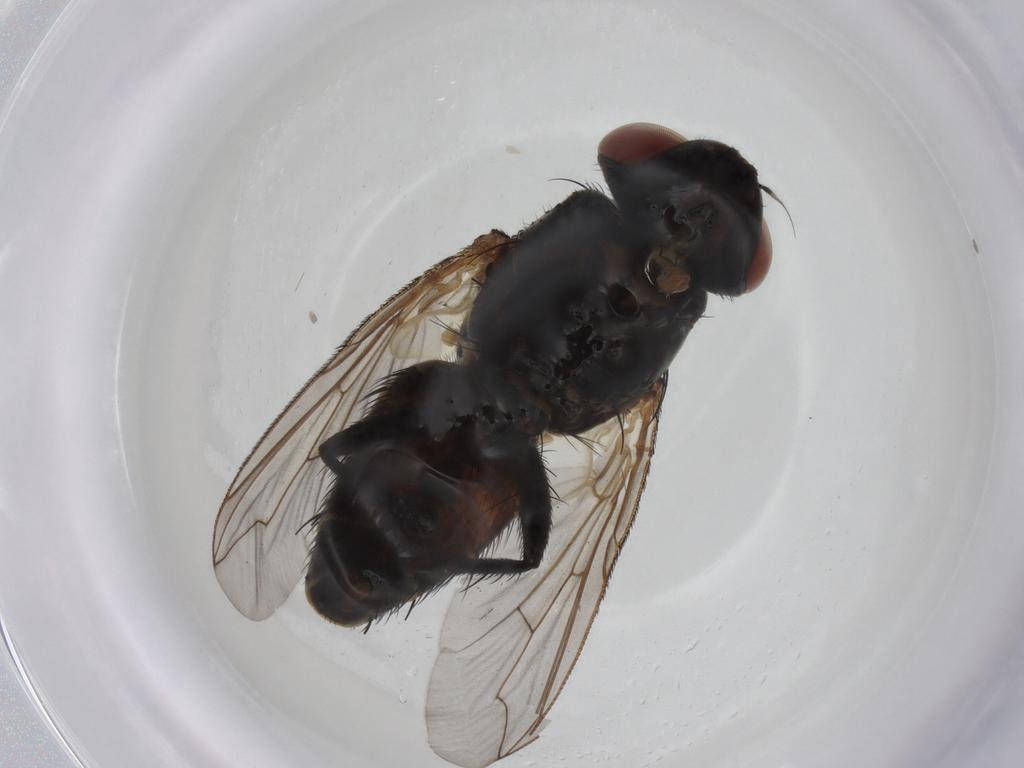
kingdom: Animalia
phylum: Arthropoda
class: Insecta
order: Diptera
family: Sarcophagidae
